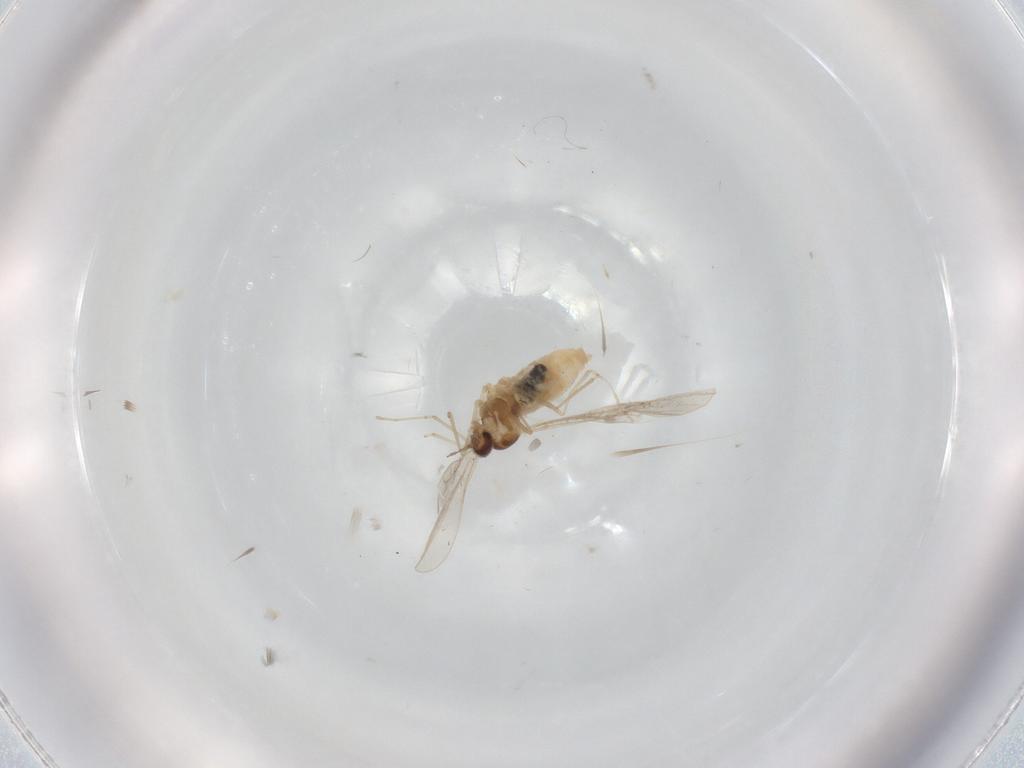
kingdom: Animalia
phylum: Arthropoda
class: Insecta
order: Diptera
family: Cecidomyiidae
